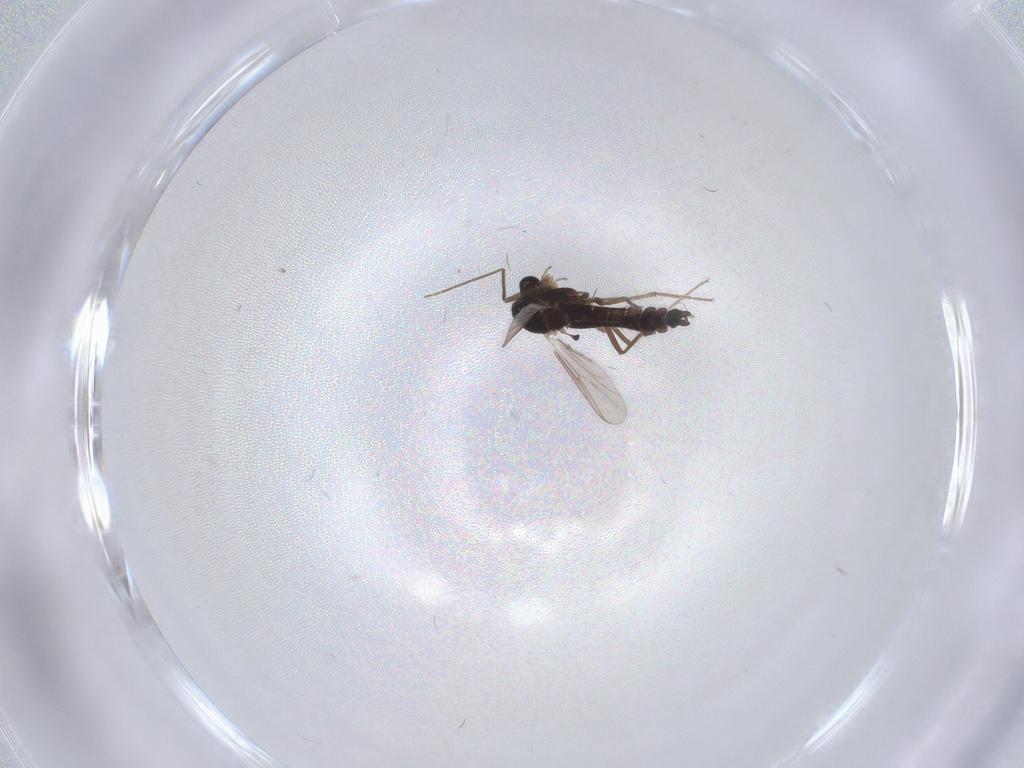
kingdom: Animalia
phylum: Arthropoda
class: Insecta
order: Diptera
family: Chironomidae
